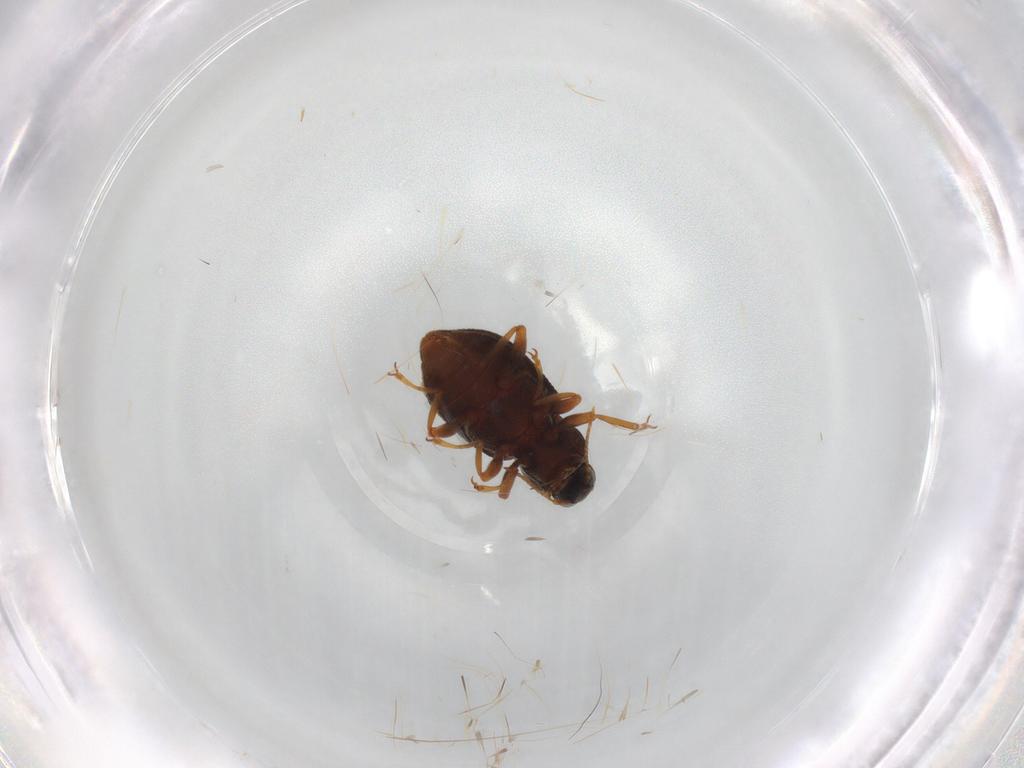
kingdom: Animalia
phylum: Arthropoda
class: Insecta
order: Coleoptera
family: Elmidae
